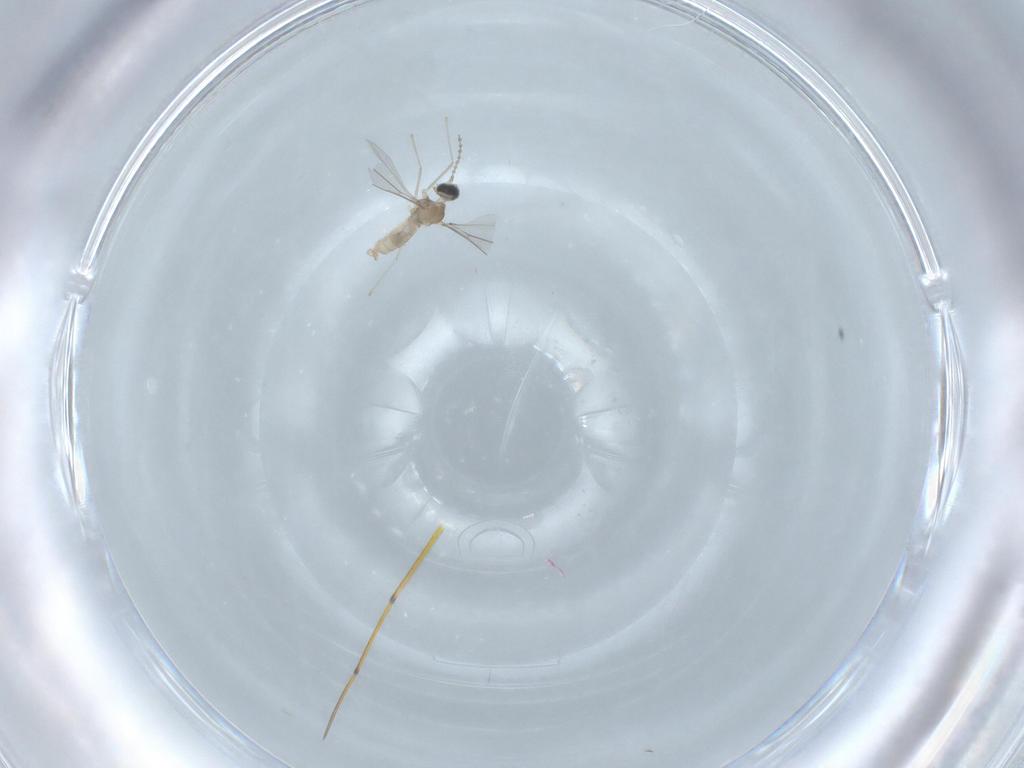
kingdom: Animalia
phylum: Arthropoda
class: Insecta
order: Diptera
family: Cecidomyiidae
